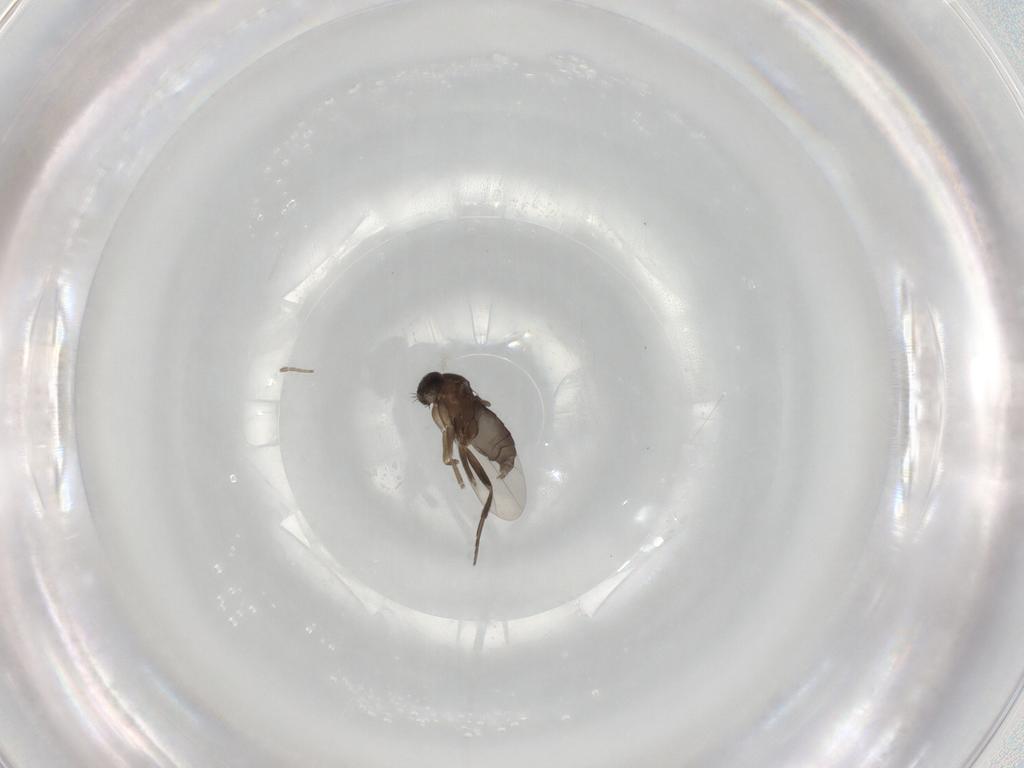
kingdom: Animalia
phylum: Arthropoda
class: Insecta
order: Diptera
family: Phoridae
